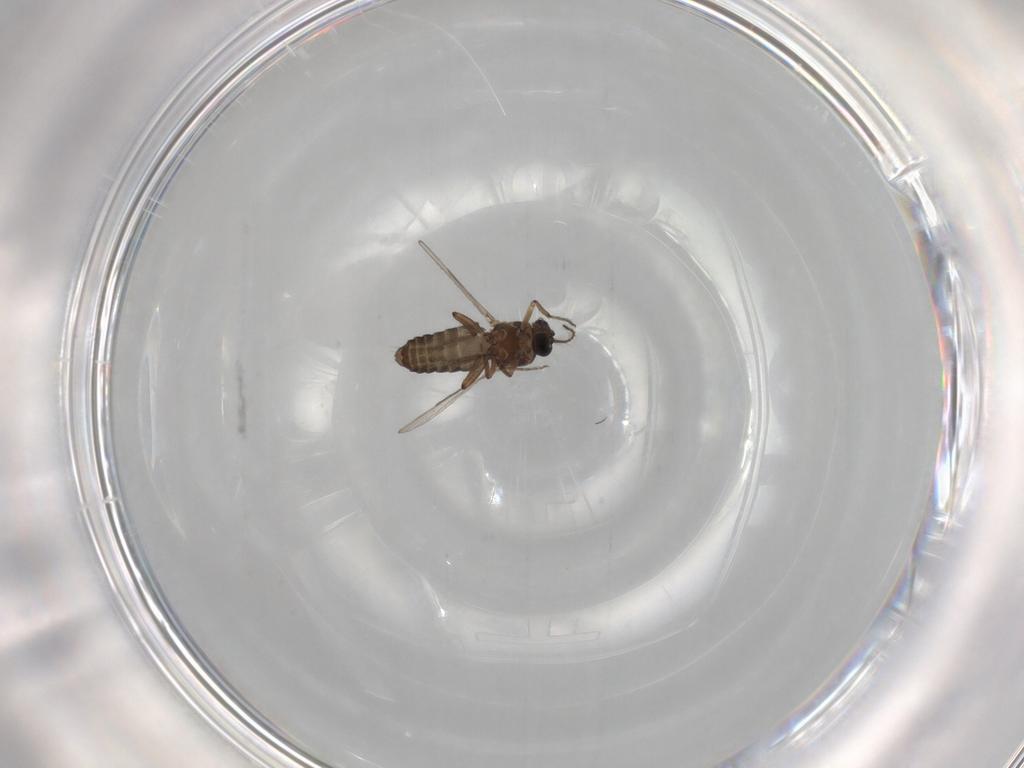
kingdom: Animalia
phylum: Arthropoda
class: Insecta
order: Diptera
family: Ceratopogonidae
